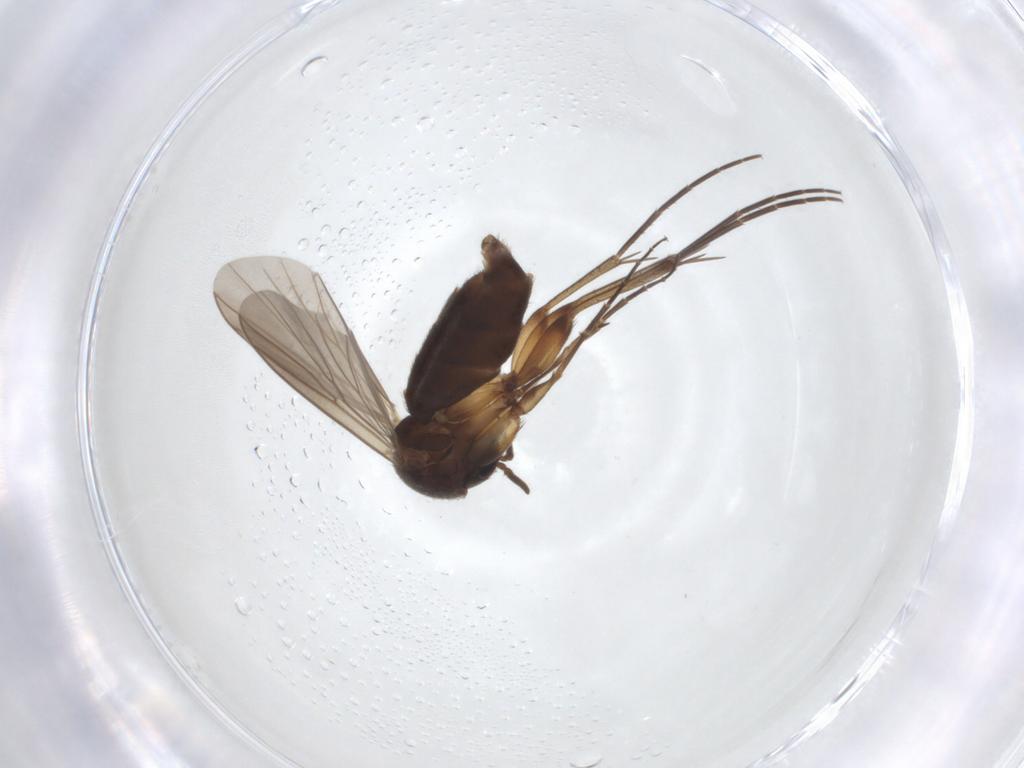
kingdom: Animalia
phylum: Arthropoda
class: Insecta
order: Diptera
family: Mycetophilidae
